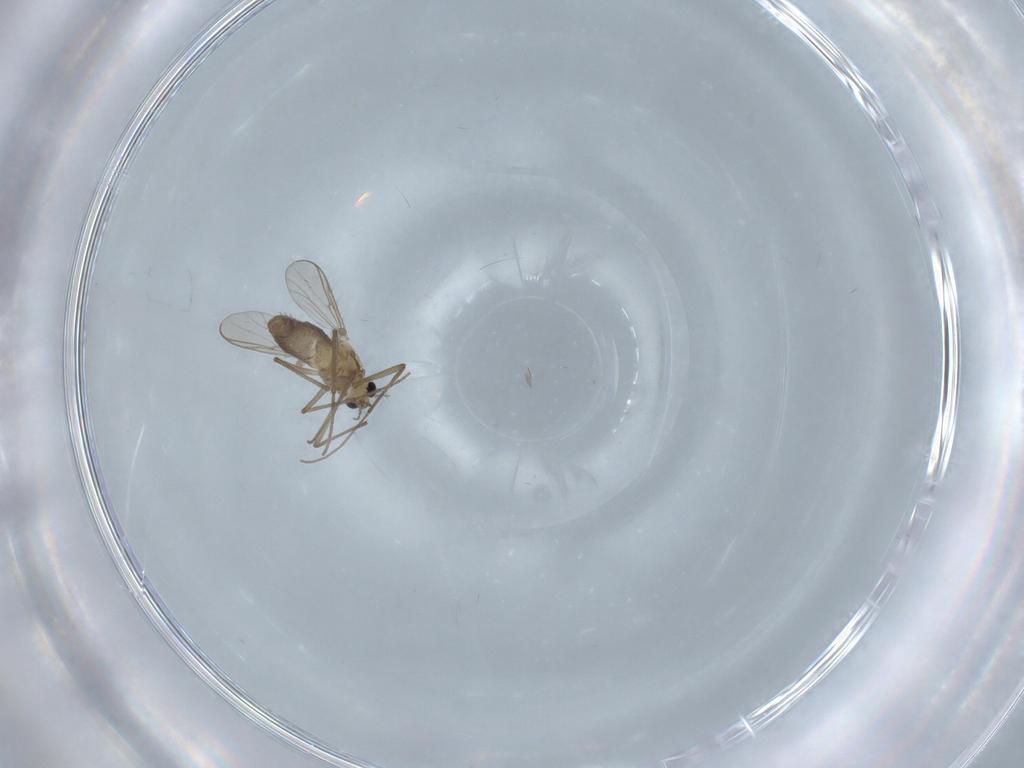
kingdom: Animalia
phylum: Arthropoda
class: Insecta
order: Diptera
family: Chironomidae
